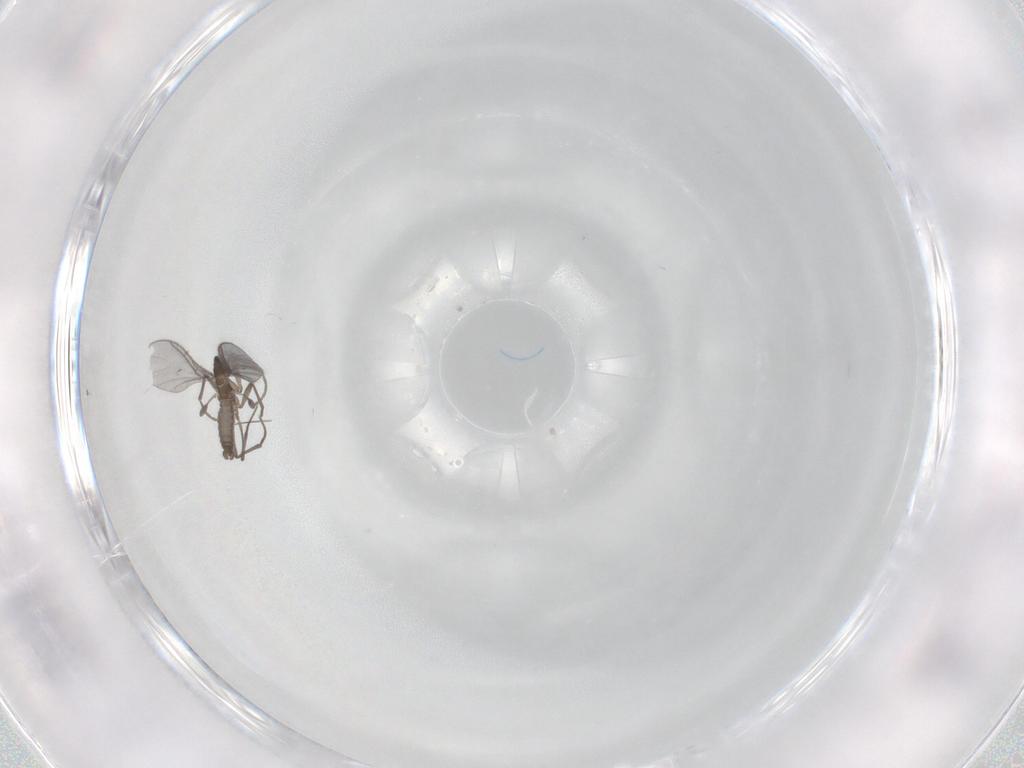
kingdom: Animalia
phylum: Arthropoda
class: Insecta
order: Diptera
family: Sciaridae
